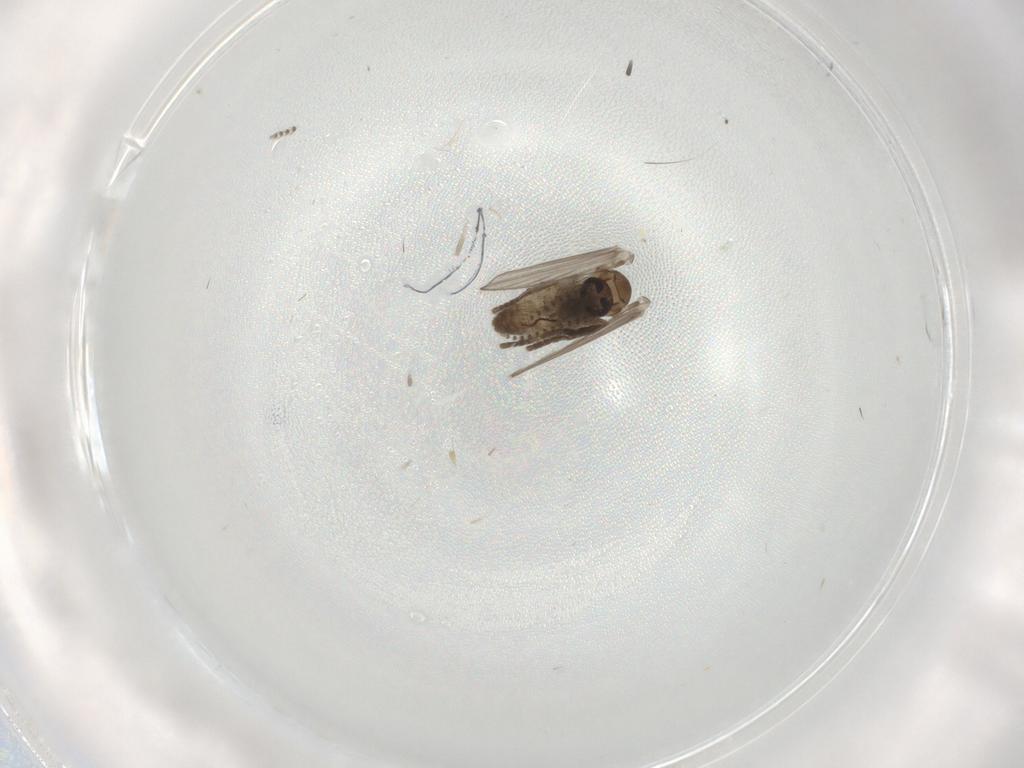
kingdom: Animalia
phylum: Arthropoda
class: Insecta
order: Diptera
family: Psychodidae
